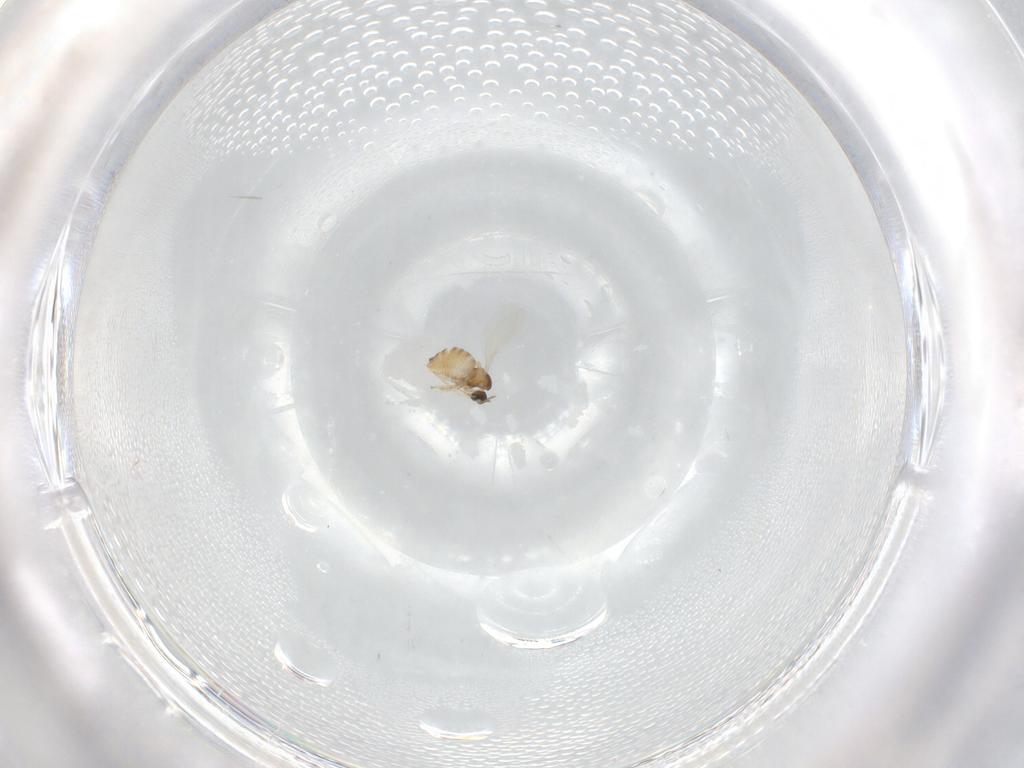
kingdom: Animalia
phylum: Arthropoda
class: Insecta
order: Diptera
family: Cecidomyiidae
